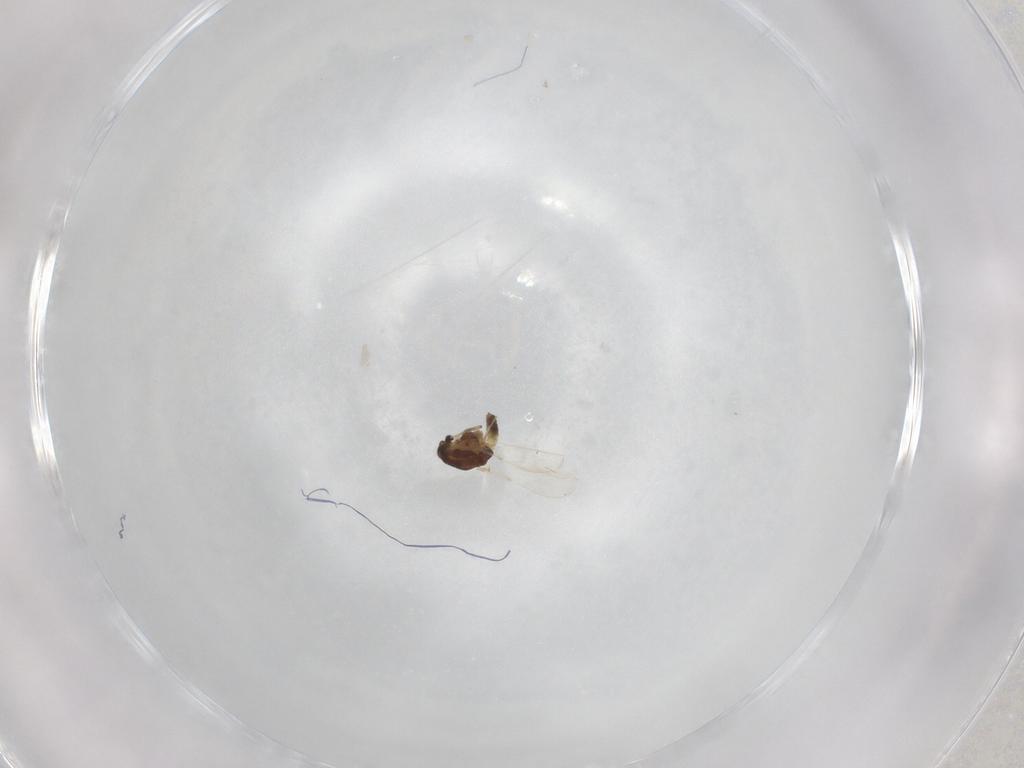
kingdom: Animalia
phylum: Arthropoda
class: Insecta
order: Diptera
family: Chironomidae
